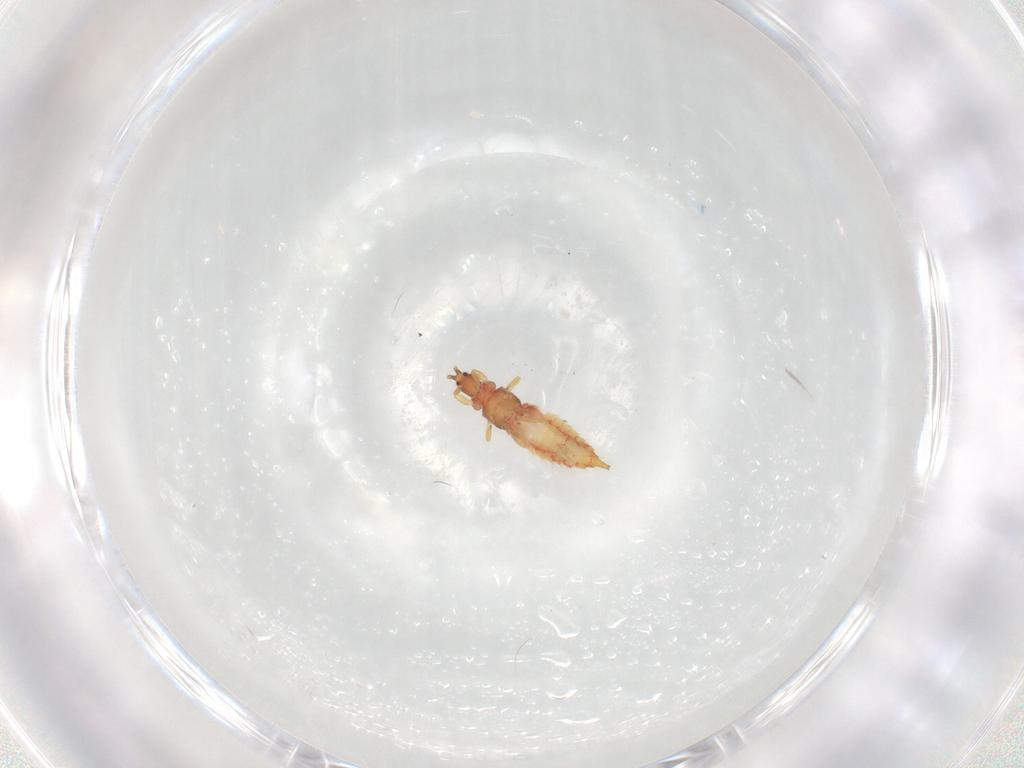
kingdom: Animalia
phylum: Arthropoda
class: Insecta
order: Thysanoptera
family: Phlaeothripidae
